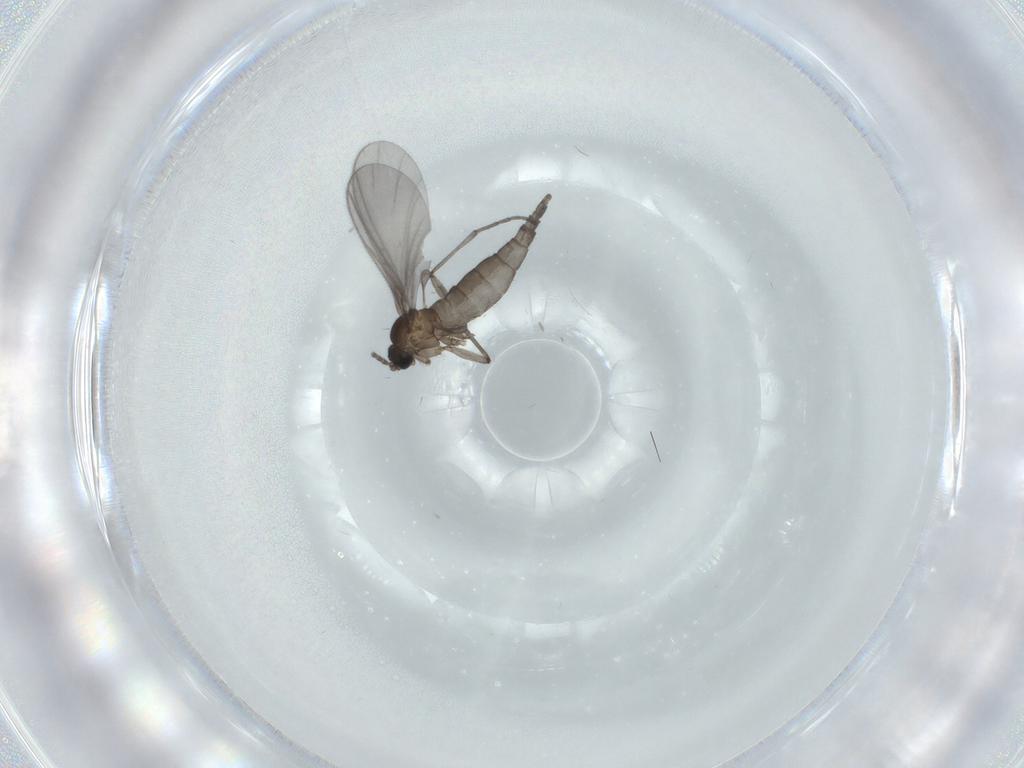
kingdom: Animalia
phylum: Arthropoda
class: Insecta
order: Diptera
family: Sciaridae
